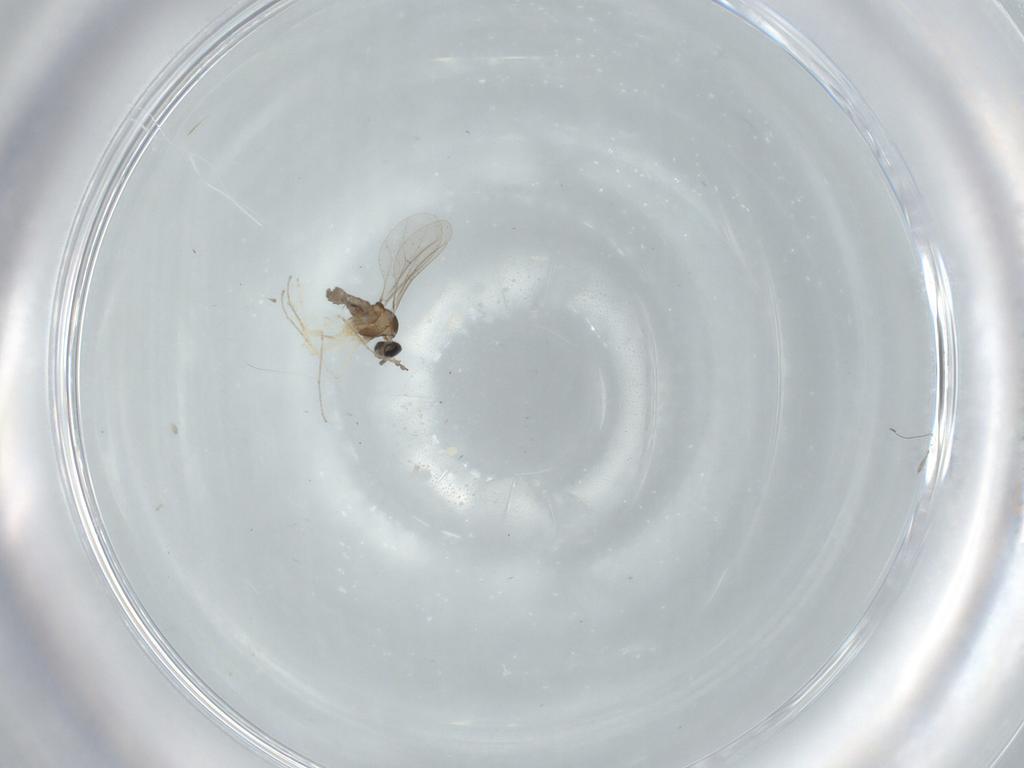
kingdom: Animalia
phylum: Arthropoda
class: Insecta
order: Diptera
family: Cecidomyiidae
